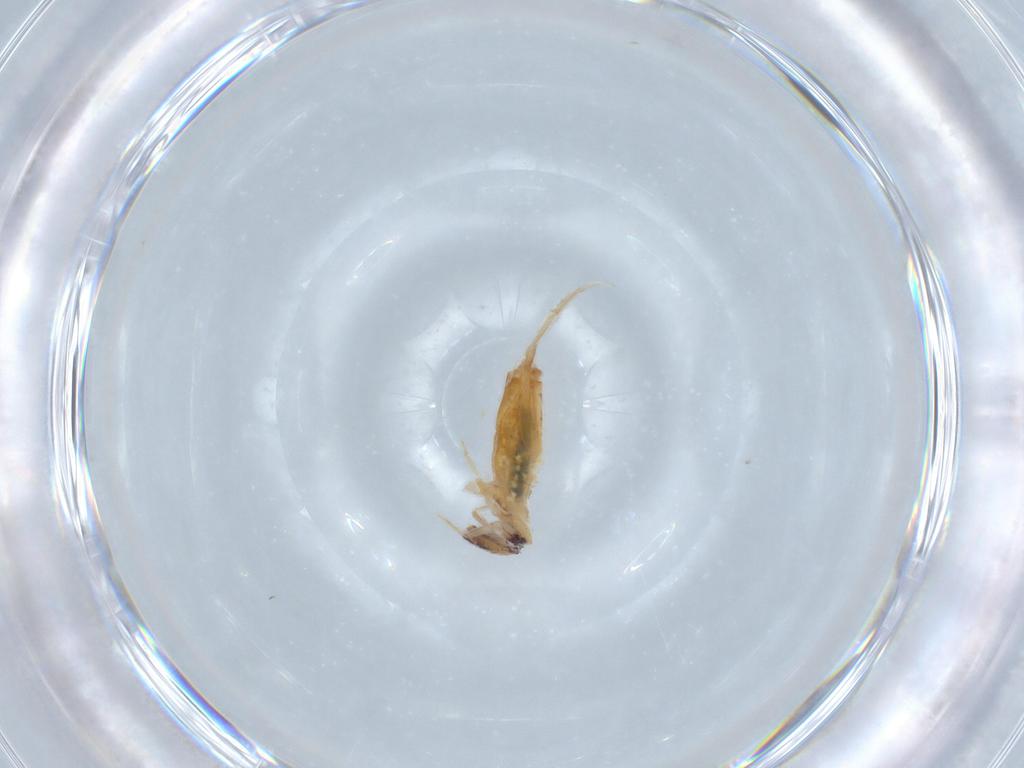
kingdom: Animalia
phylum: Arthropoda
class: Collembola
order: Entomobryomorpha
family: Entomobryidae
